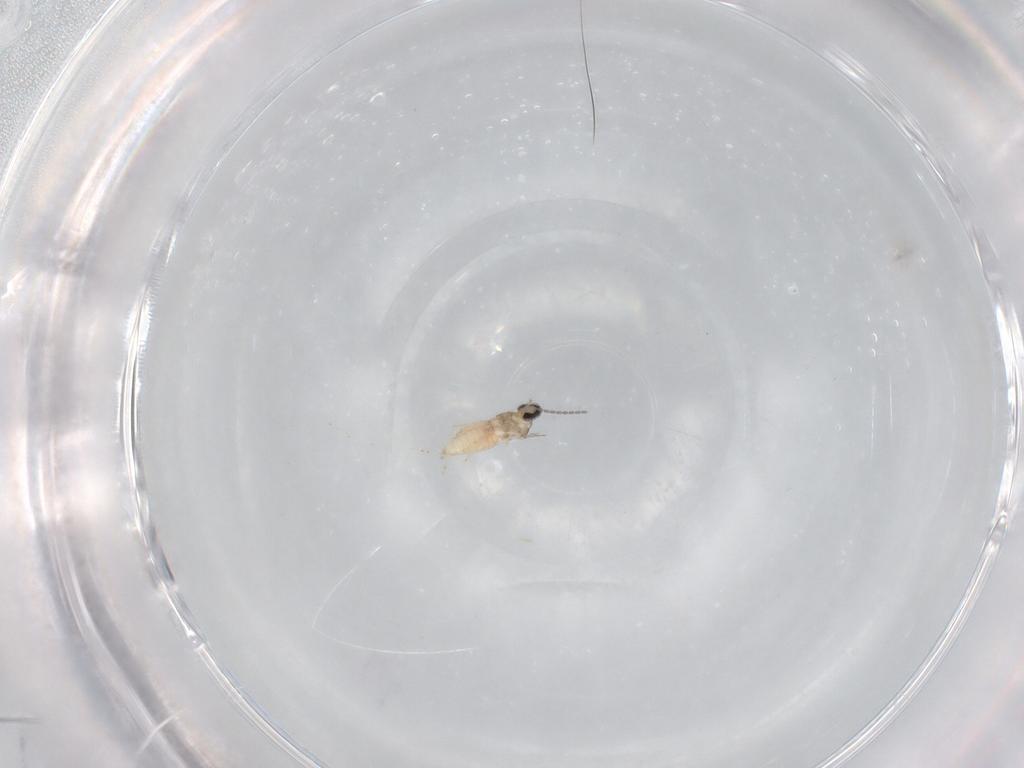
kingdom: Animalia
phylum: Arthropoda
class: Insecta
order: Diptera
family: Cecidomyiidae
